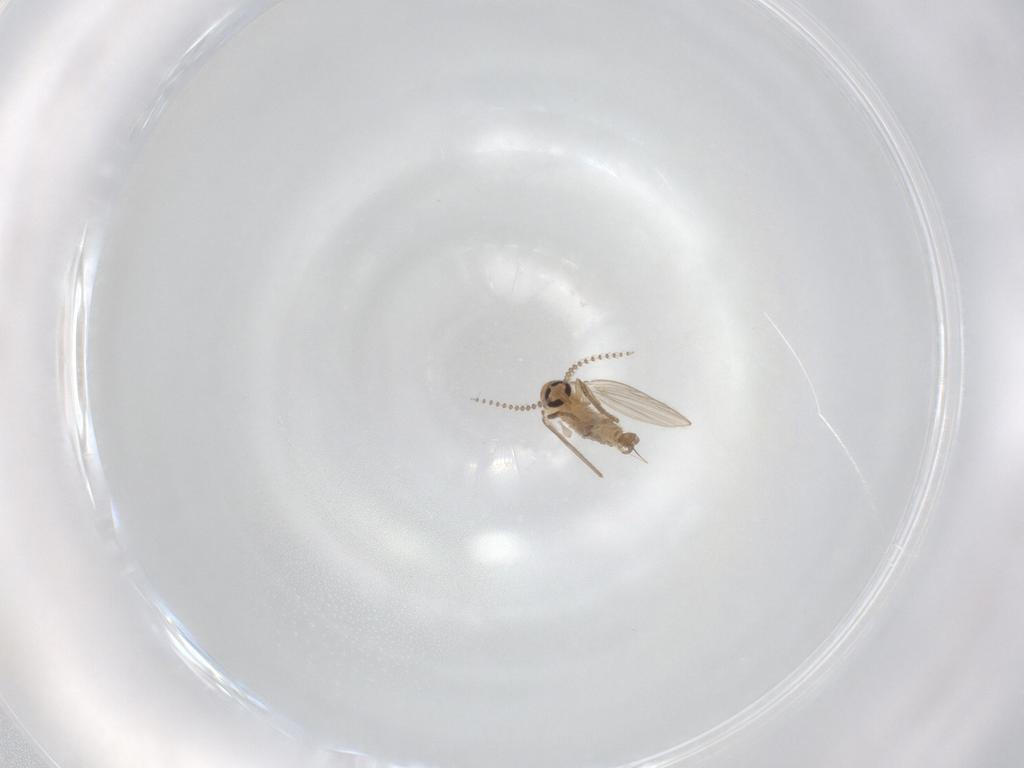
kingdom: Animalia
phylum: Arthropoda
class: Insecta
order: Diptera
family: Psychodidae
